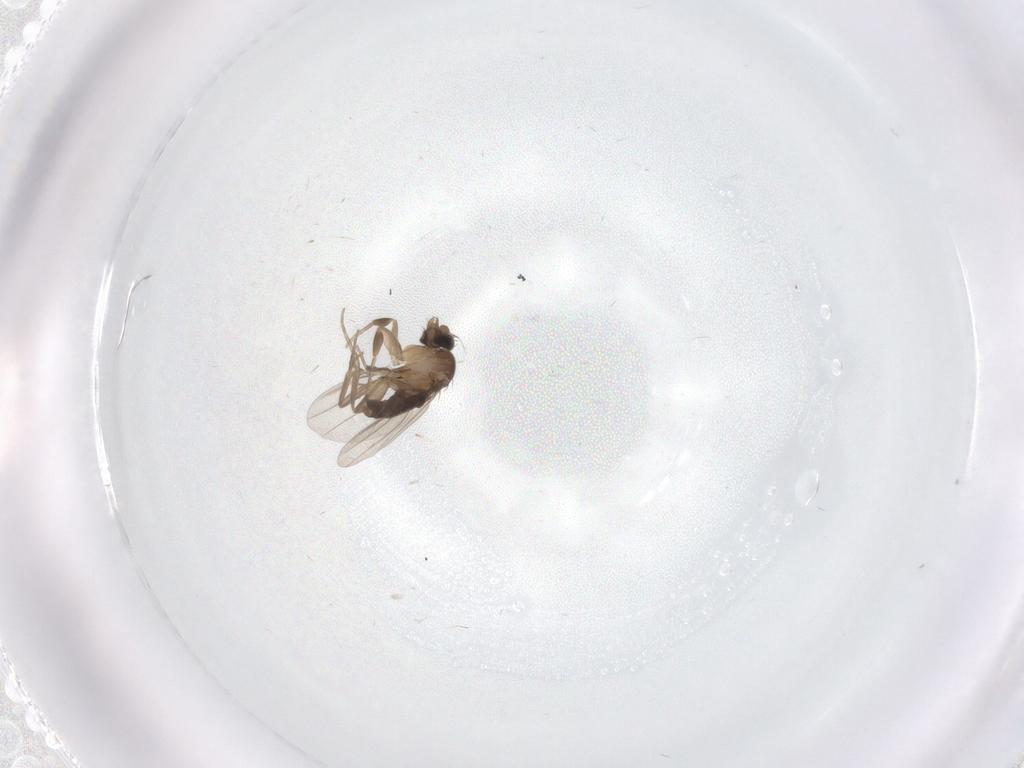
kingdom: Animalia
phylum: Arthropoda
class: Insecta
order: Diptera
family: Phoridae
